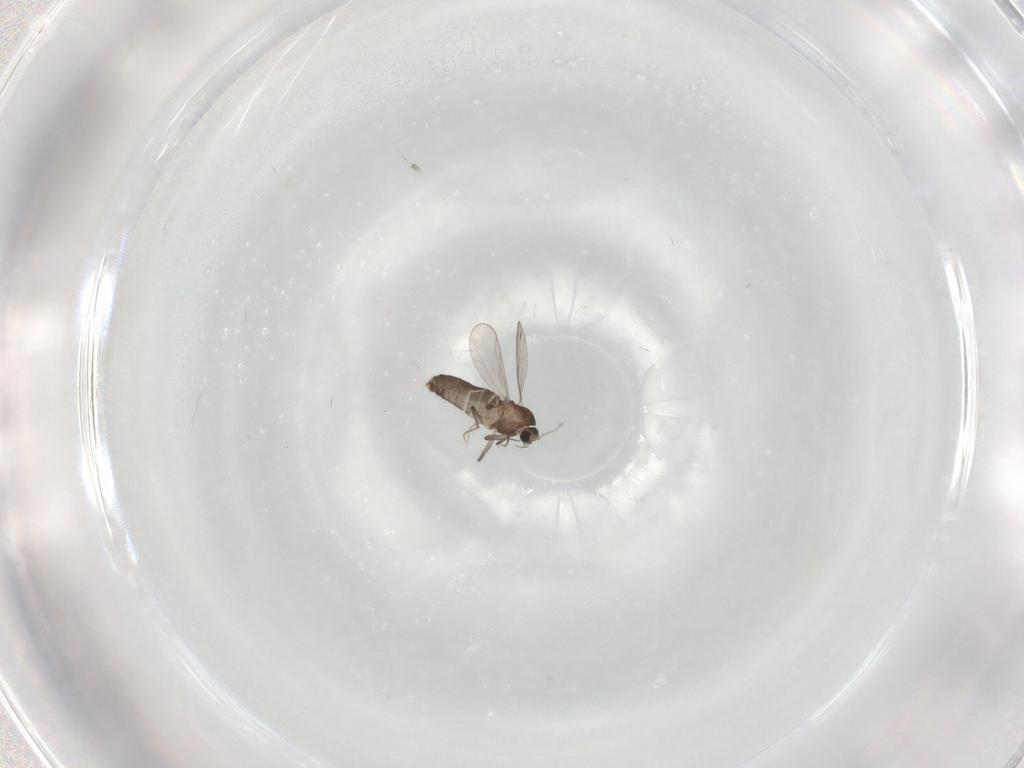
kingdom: Animalia
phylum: Arthropoda
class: Insecta
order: Diptera
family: Chironomidae
